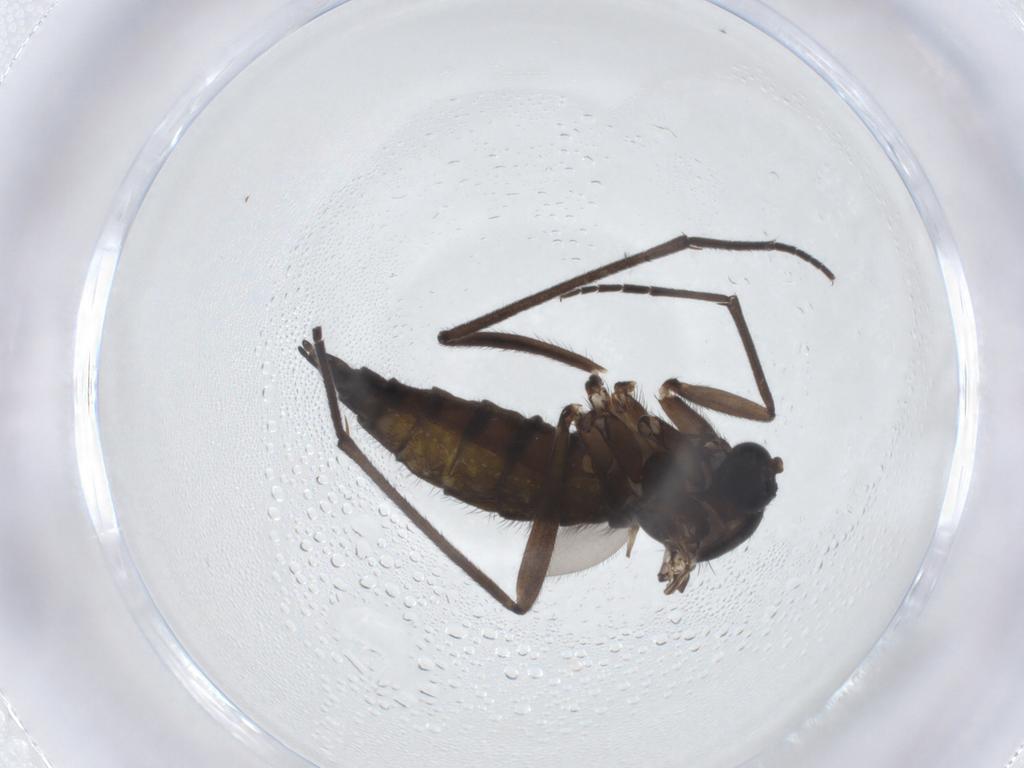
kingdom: Animalia
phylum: Arthropoda
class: Insecta
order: Diptera
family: Sciaridae
